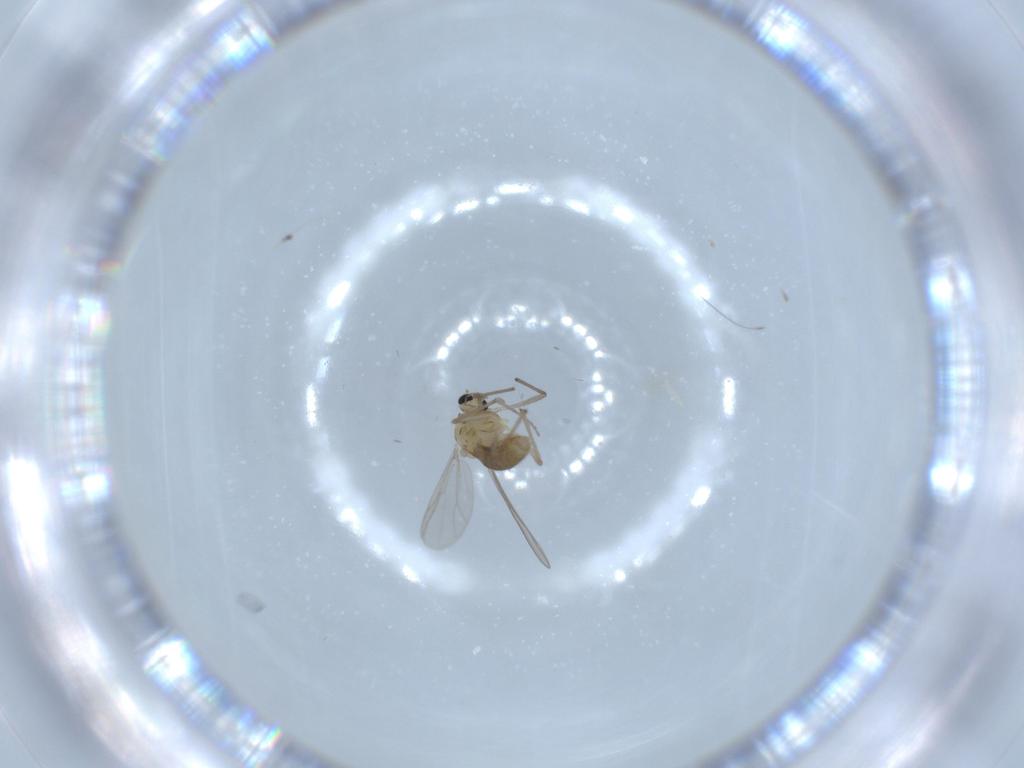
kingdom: Animalia
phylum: Arthropoda
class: Insecta
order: Diptera
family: Chironomidae
